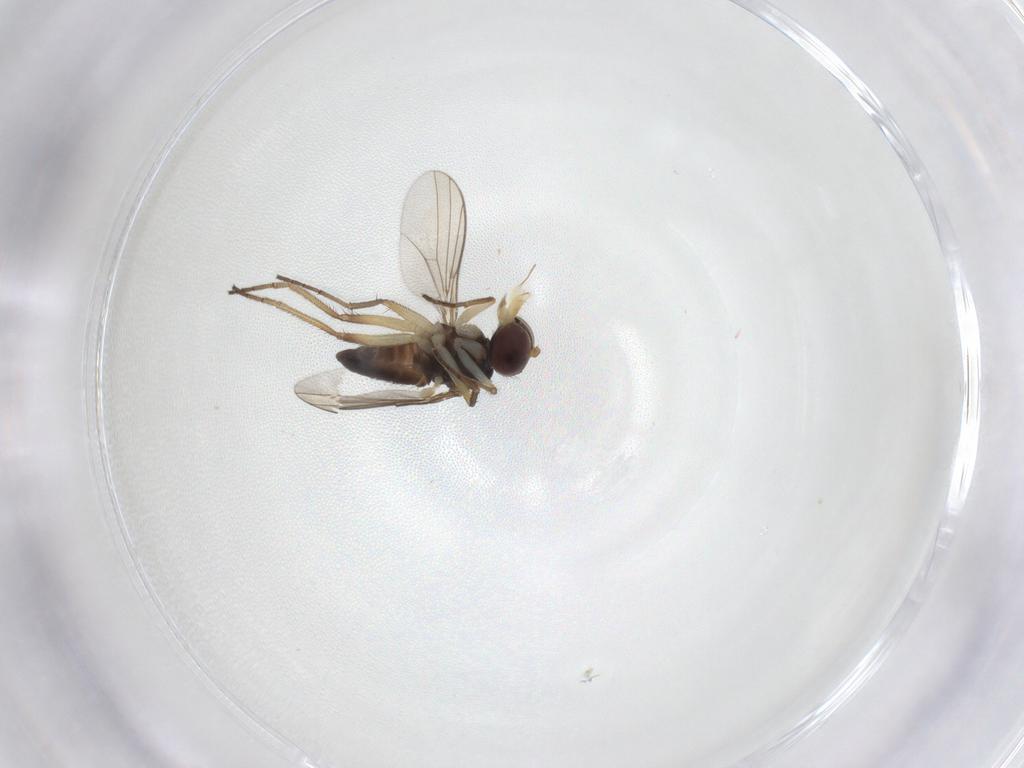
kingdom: Animalia
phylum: Arthropoda
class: Insecta
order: Diptera
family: Dolichopodidae
